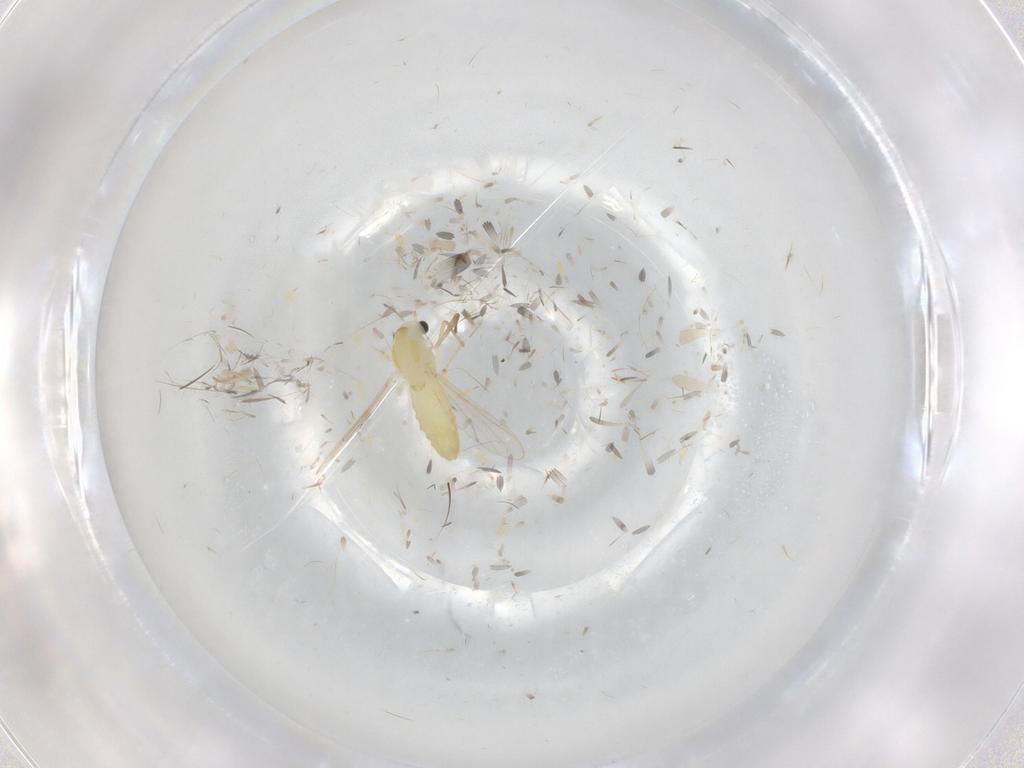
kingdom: Animalia
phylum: Arthropoda
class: Insecta
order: Diptera
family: Chironomidae
